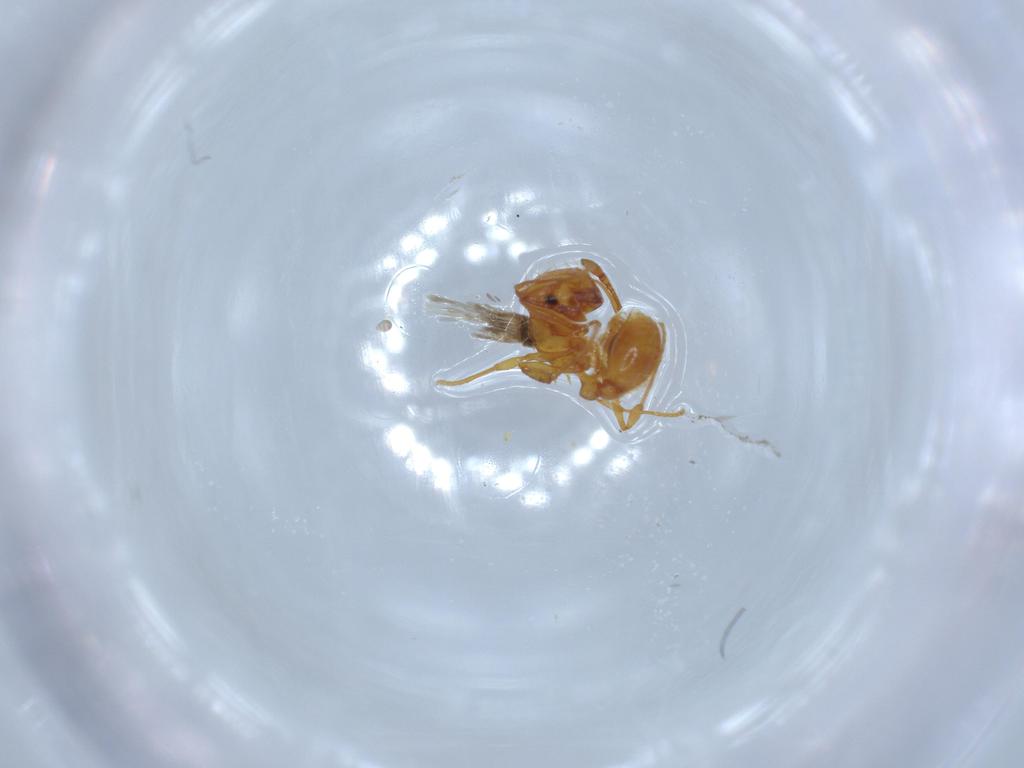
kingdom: Animalia
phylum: Arthropoda
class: Insecta
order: Hymenoptera
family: Formicidae
